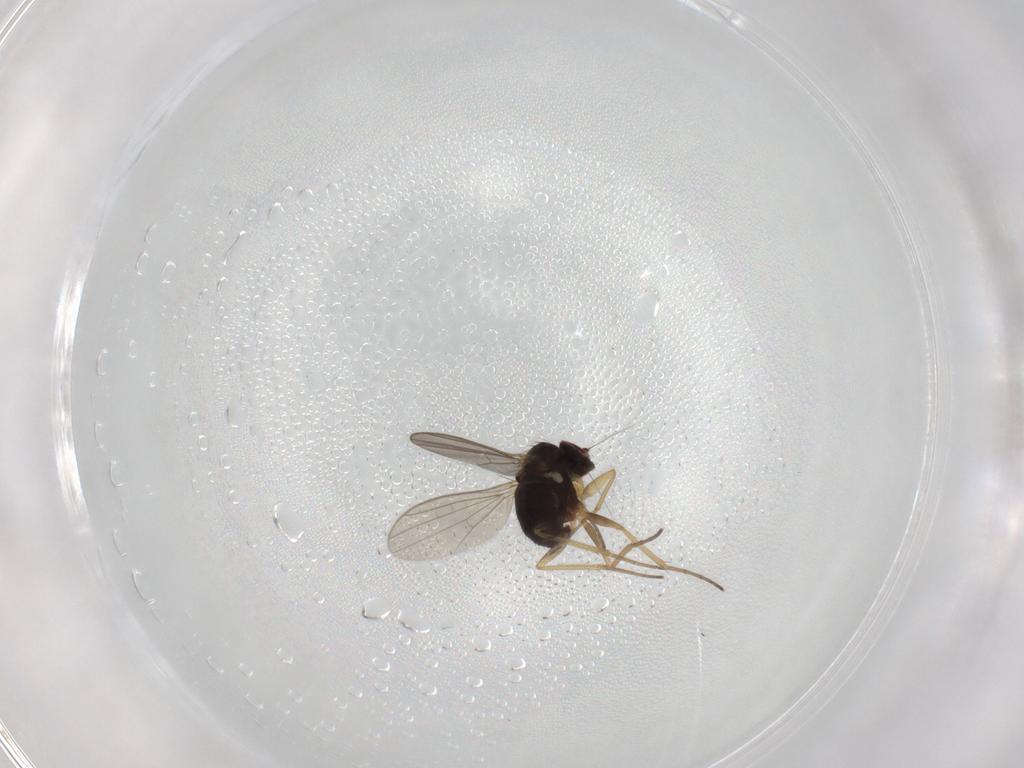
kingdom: Animalia
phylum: Arthropoda
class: Insecta
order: Diptera
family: Dolichopodidae
